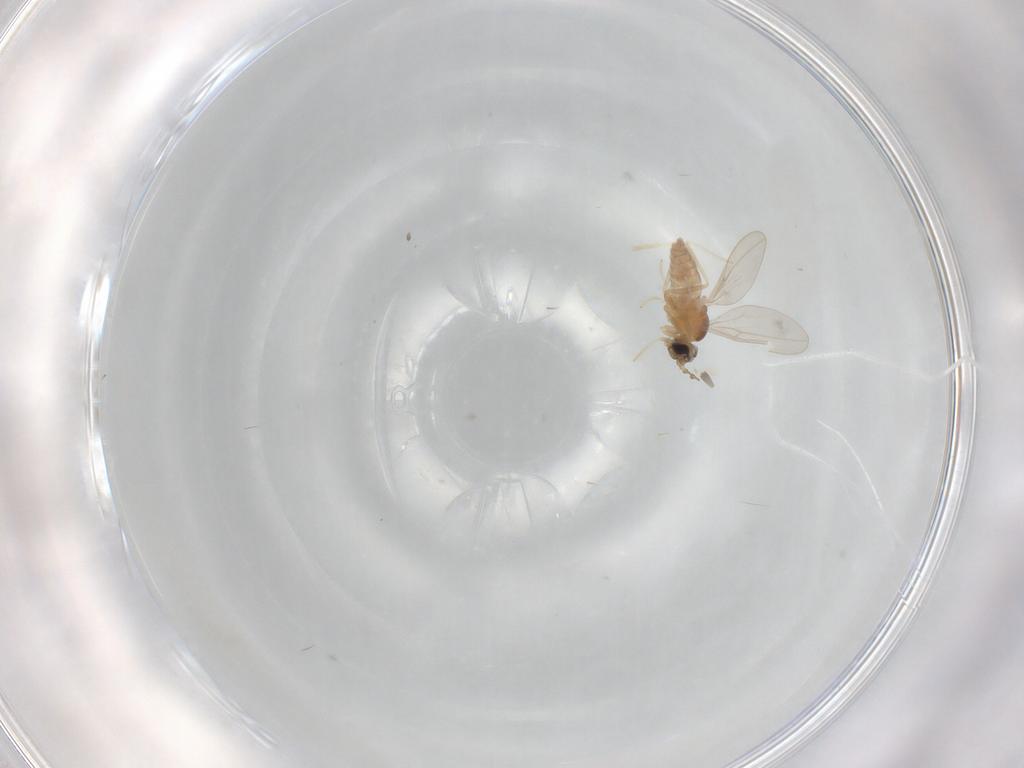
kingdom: Animalia
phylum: Arthropoda
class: Insecta
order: Diptera
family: Cecidomyiidae
